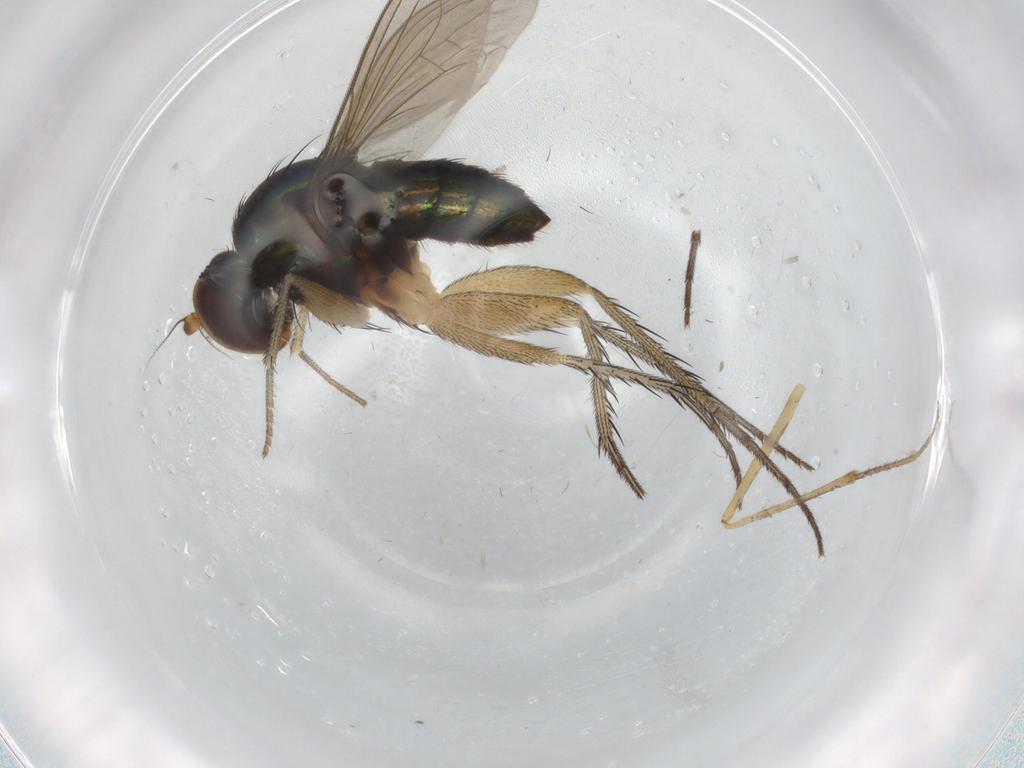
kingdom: Animalia
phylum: Arthropoda
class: Insecta
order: Diptera
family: Dolichopodidae
